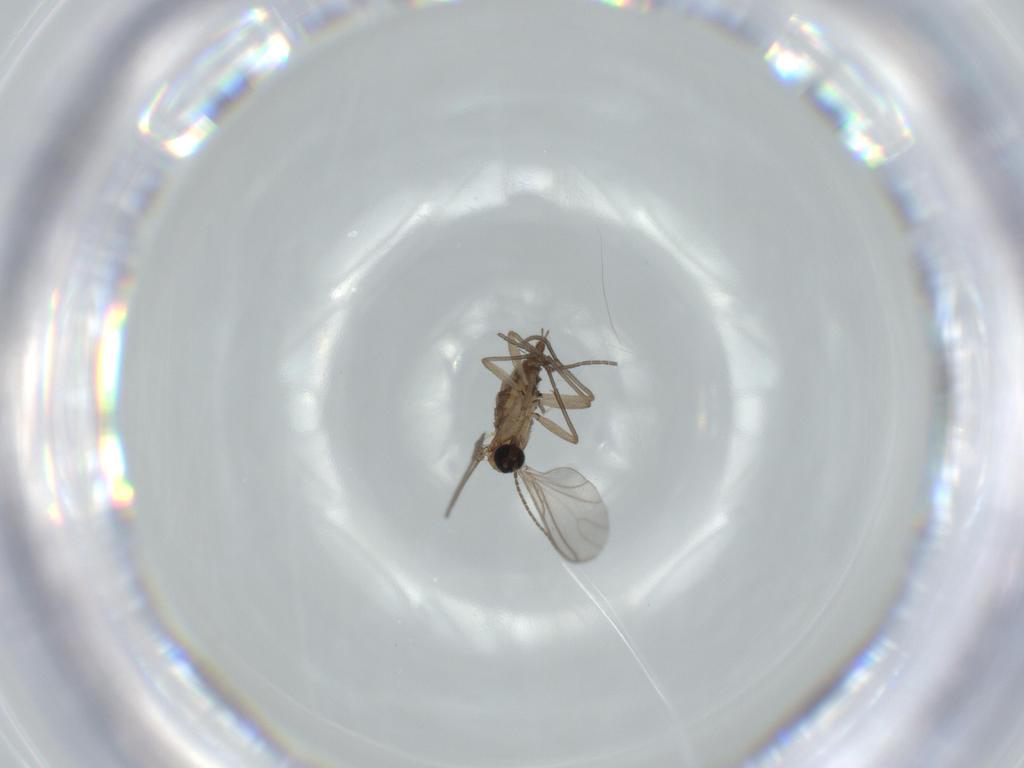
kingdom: Animalia
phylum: Arthropoda
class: Insecta
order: Diptera
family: Sciaridae
